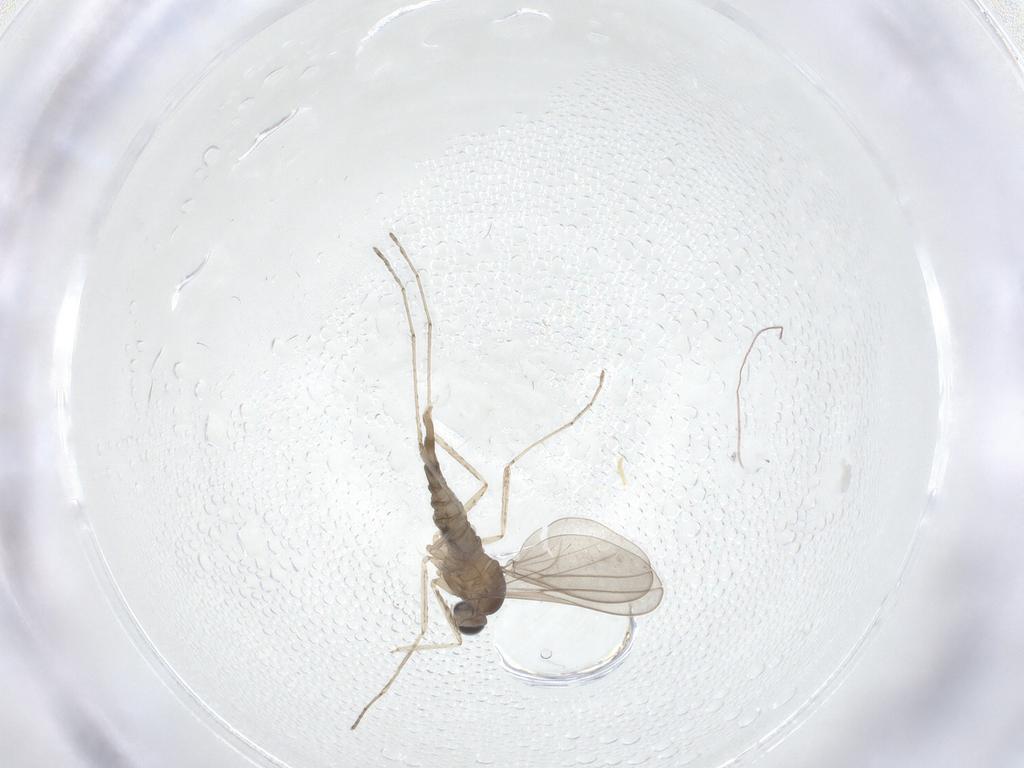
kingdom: Animalia
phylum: Arthropoda
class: Insecta
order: Diptera
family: Cecidomyiidae
